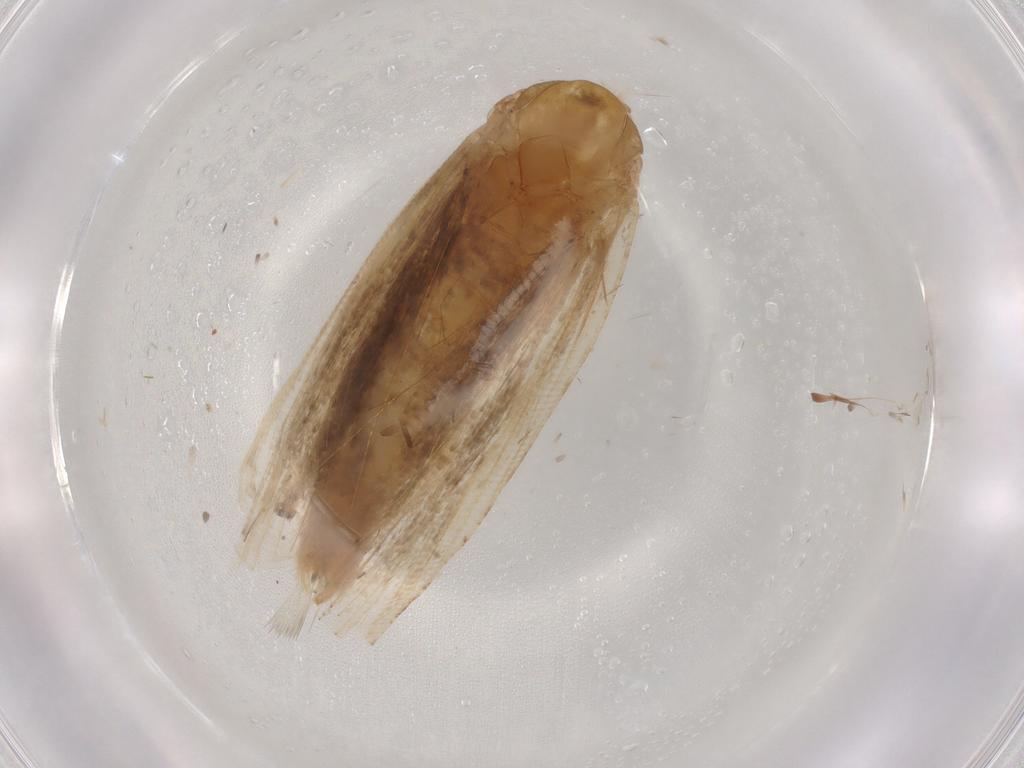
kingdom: Animalia
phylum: Arthropoda
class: Insecta
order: Lepidoptera
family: Tortricidae
